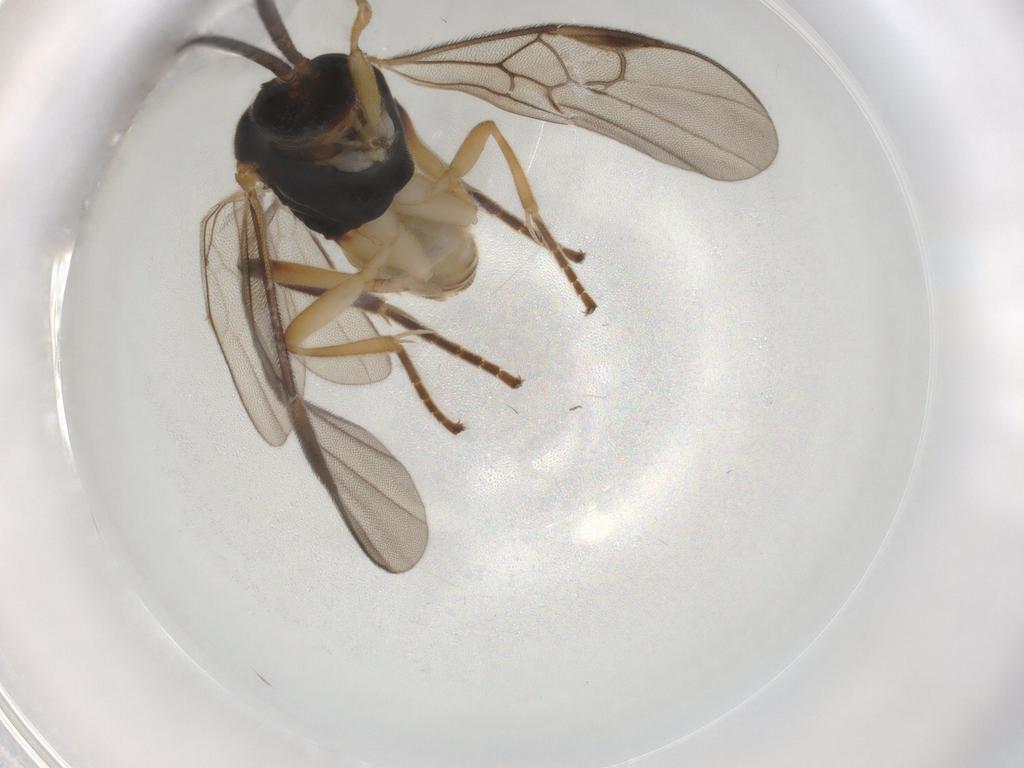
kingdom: Animalia
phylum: Arthropoda
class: Insecta
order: Hymenoptera
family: Braconidae
